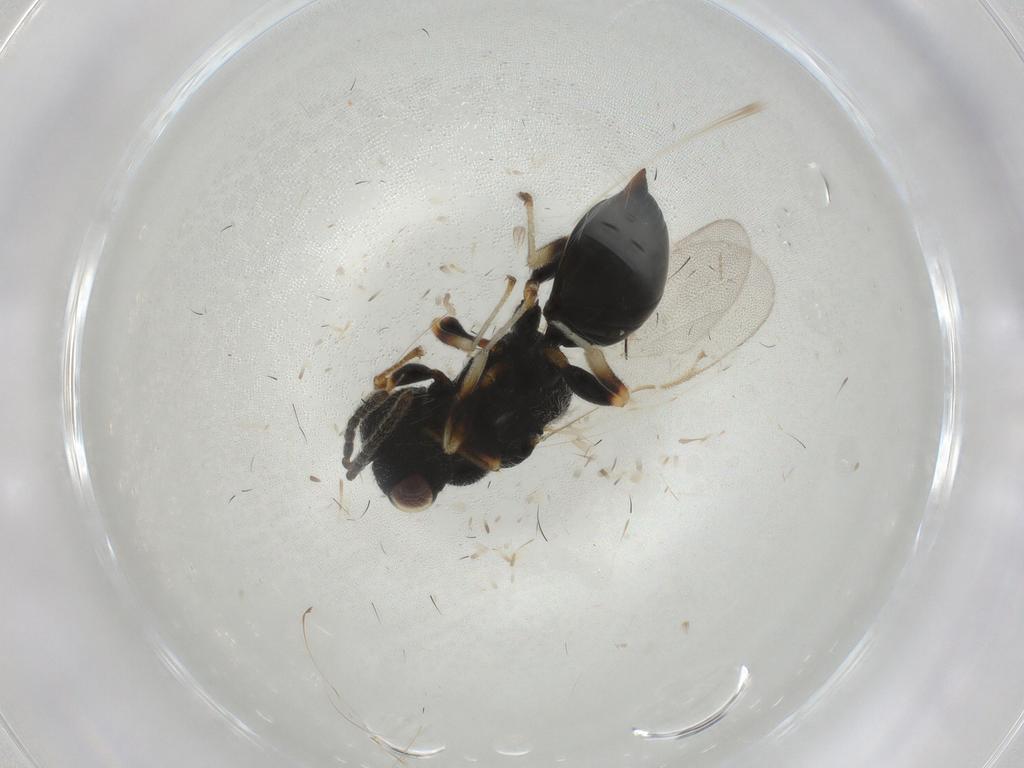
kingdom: Animalia
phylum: Arthropoda
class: Insecta
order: Hymenoptera
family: Eurytomidae
